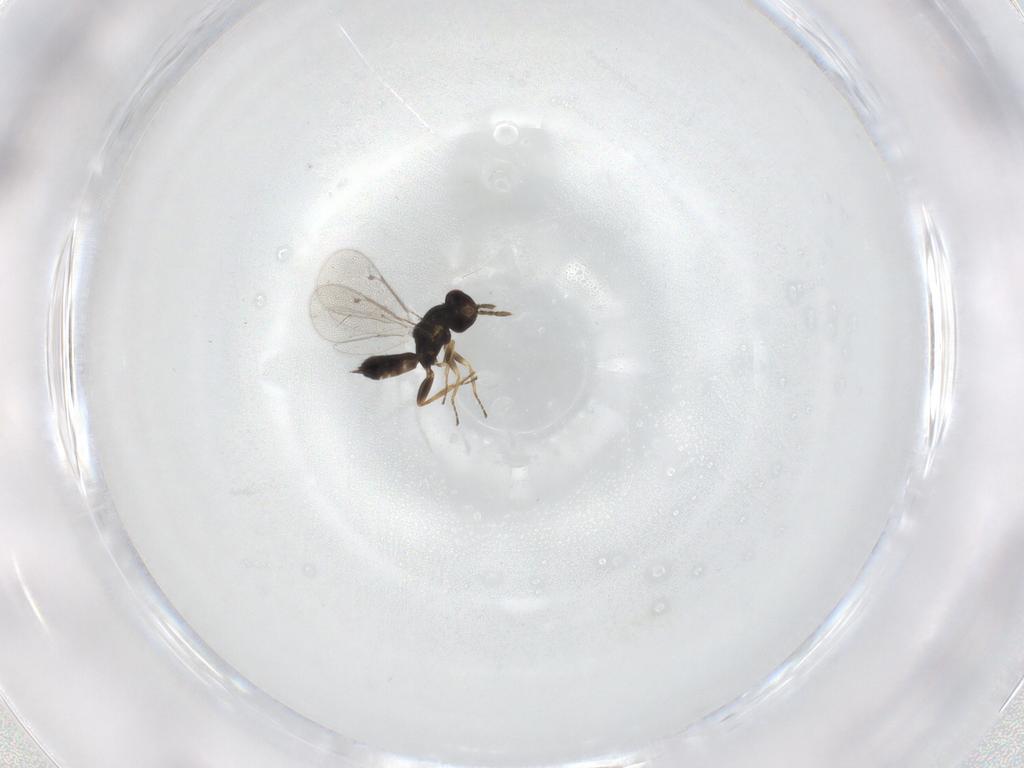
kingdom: Animalia
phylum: Arthropoda
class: Insecta
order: Hymenoptera
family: Eulophidae
